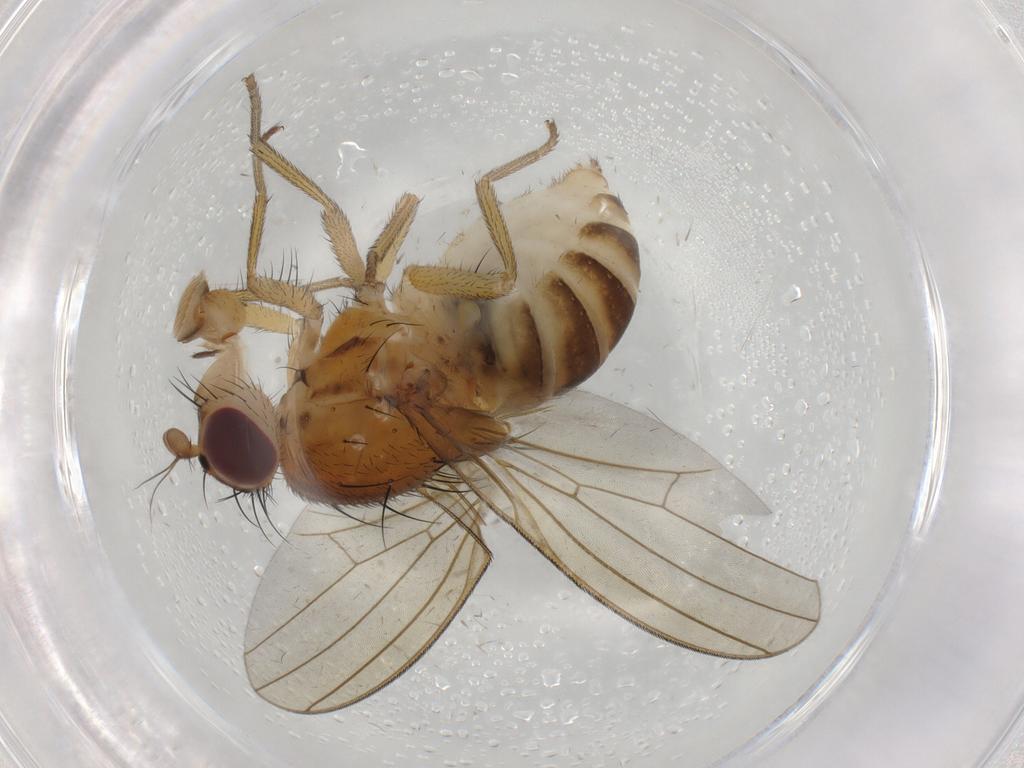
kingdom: Animalia
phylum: Arthropoda
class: Insecta
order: Diptera
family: Lauxaniidae
